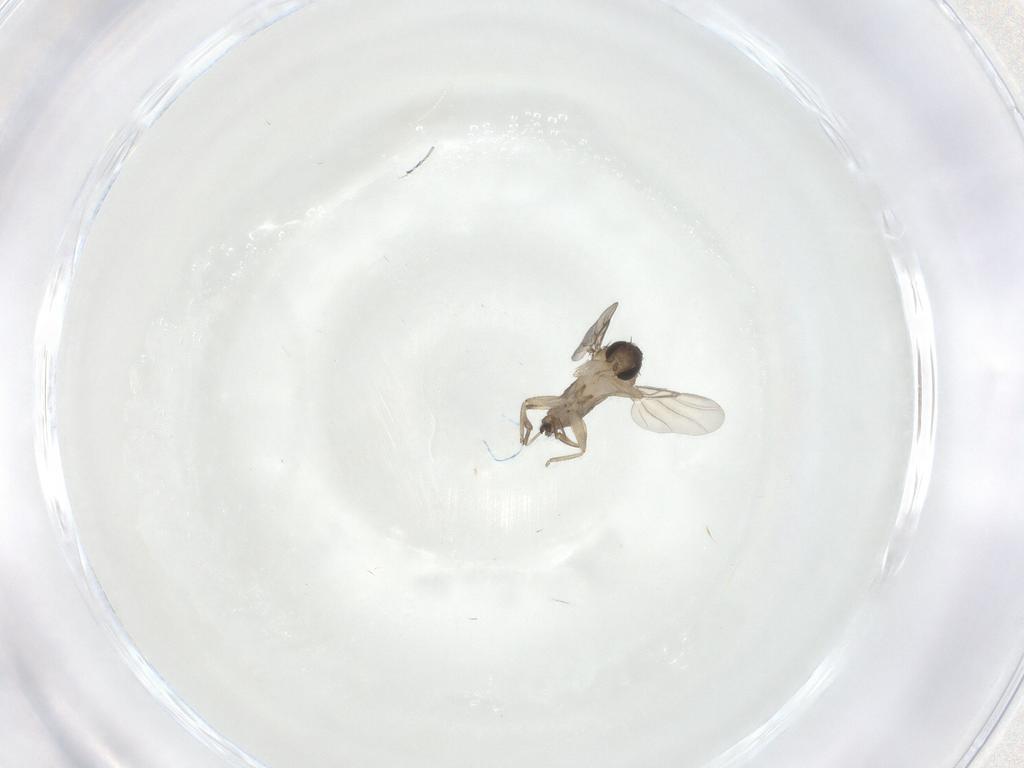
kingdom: Animalia
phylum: Arthropoda
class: Insecta
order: Diptera
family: Phoridae
